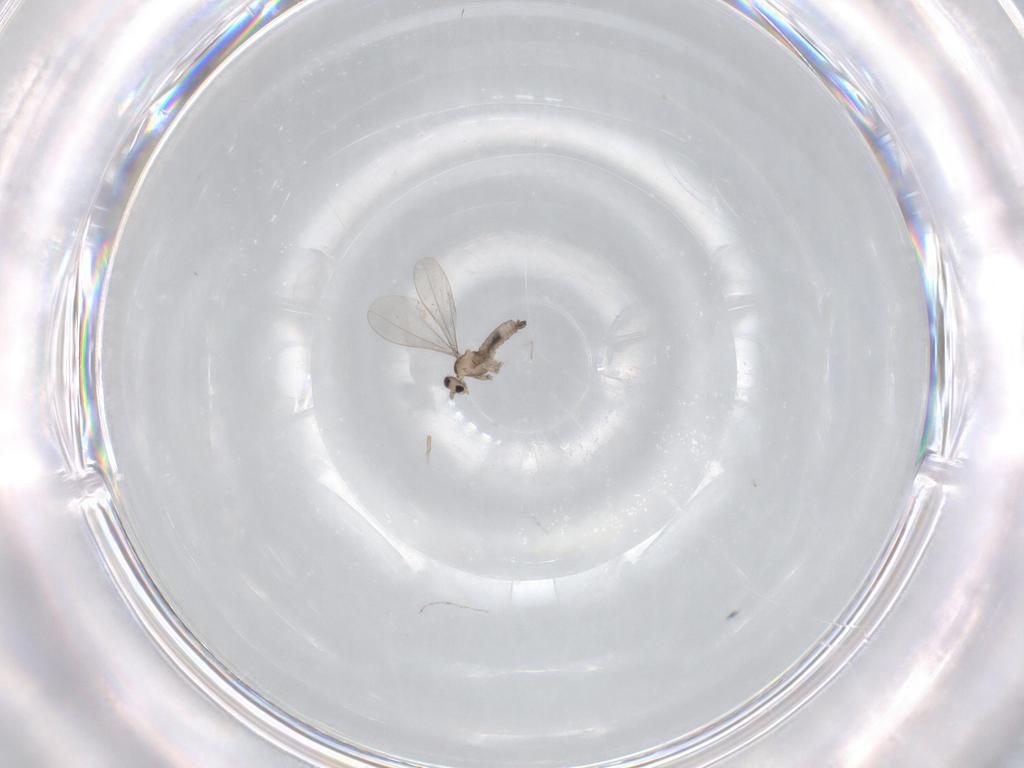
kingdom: Animalia
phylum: Arthropoda
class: Insecta
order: Diptera
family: Cecidomyiidae
